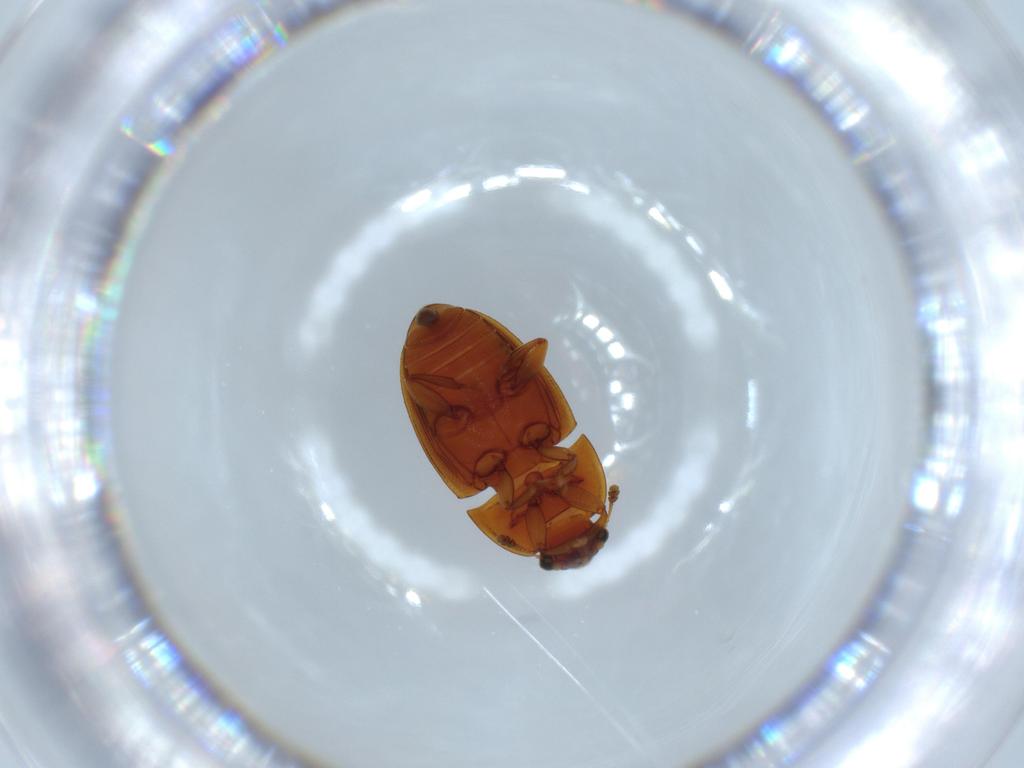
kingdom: Animalia
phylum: Arthropoda
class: Insecta
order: Coleoptera
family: Nitidulidae
